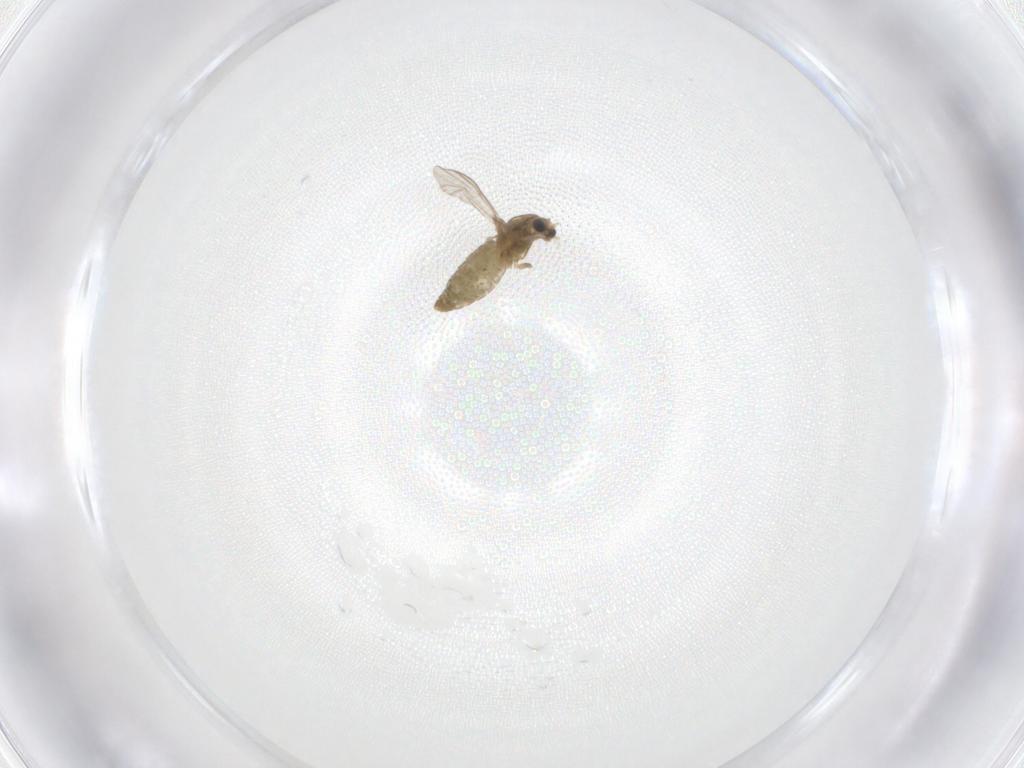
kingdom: Animalia
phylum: Arthropoda
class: Insecta
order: Diptera
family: Chironomidae
